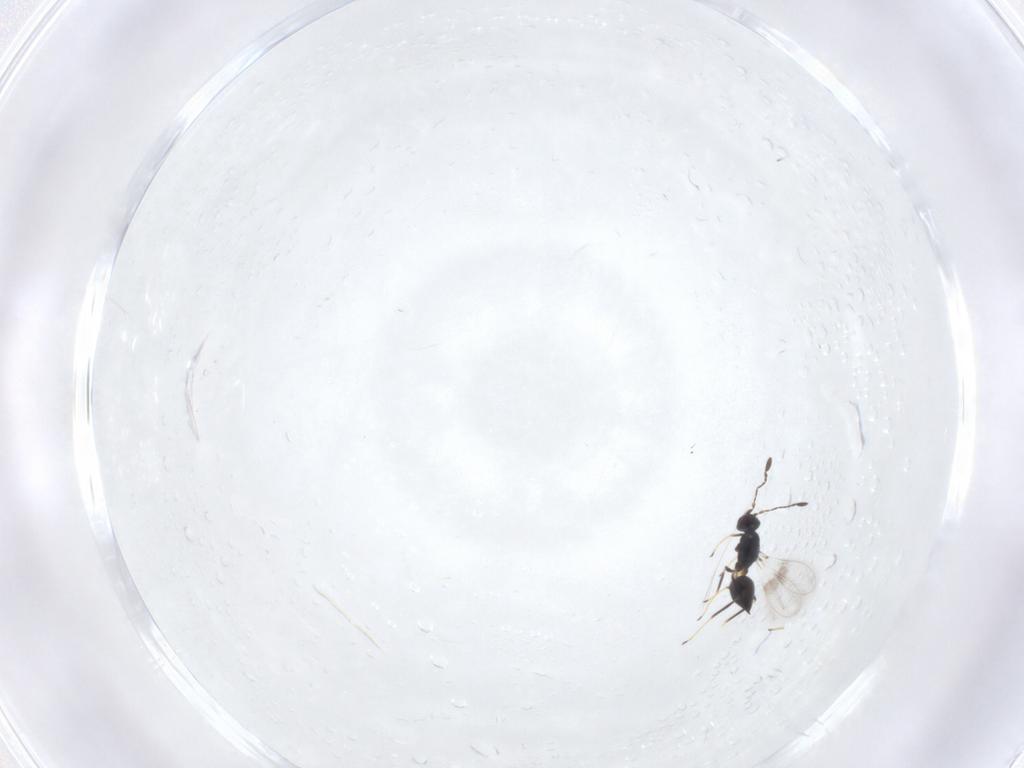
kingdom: Animalia
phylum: Arthropoda
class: Insecta
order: Hymenoptera
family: Mymaridae
